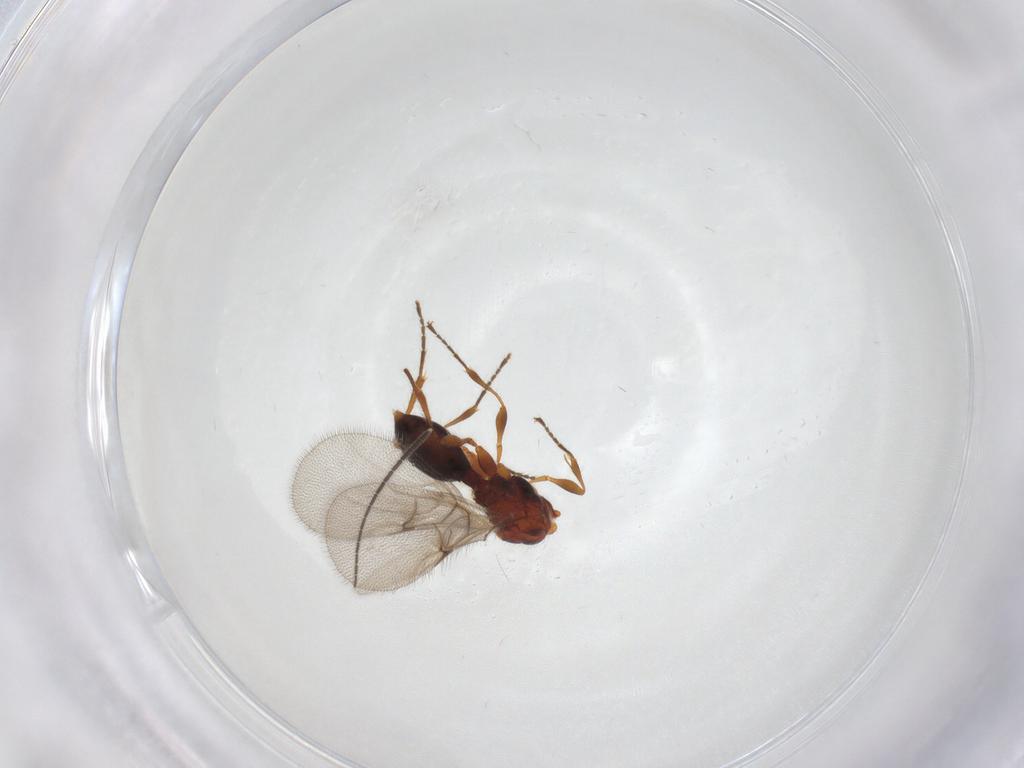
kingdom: Animalia
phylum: Arthropoda
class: Insecta
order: Hymenoptera
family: Diapriidae
